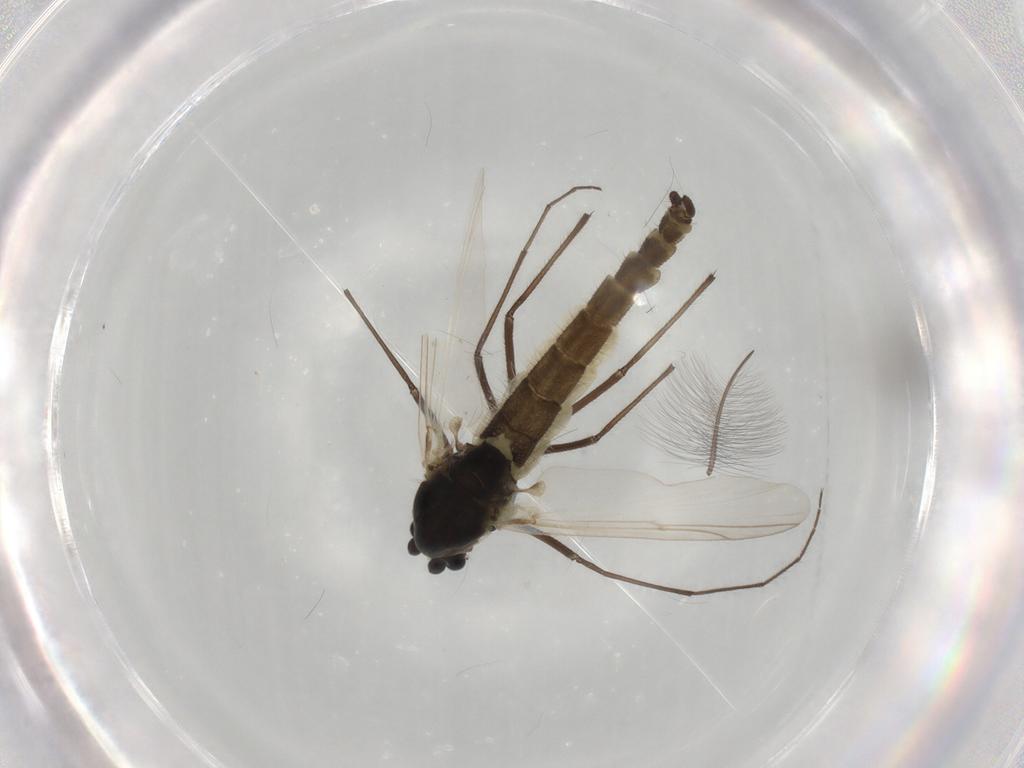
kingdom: Animalia
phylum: Arthropoda
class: Insecta
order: Diptera
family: Chironomidae
